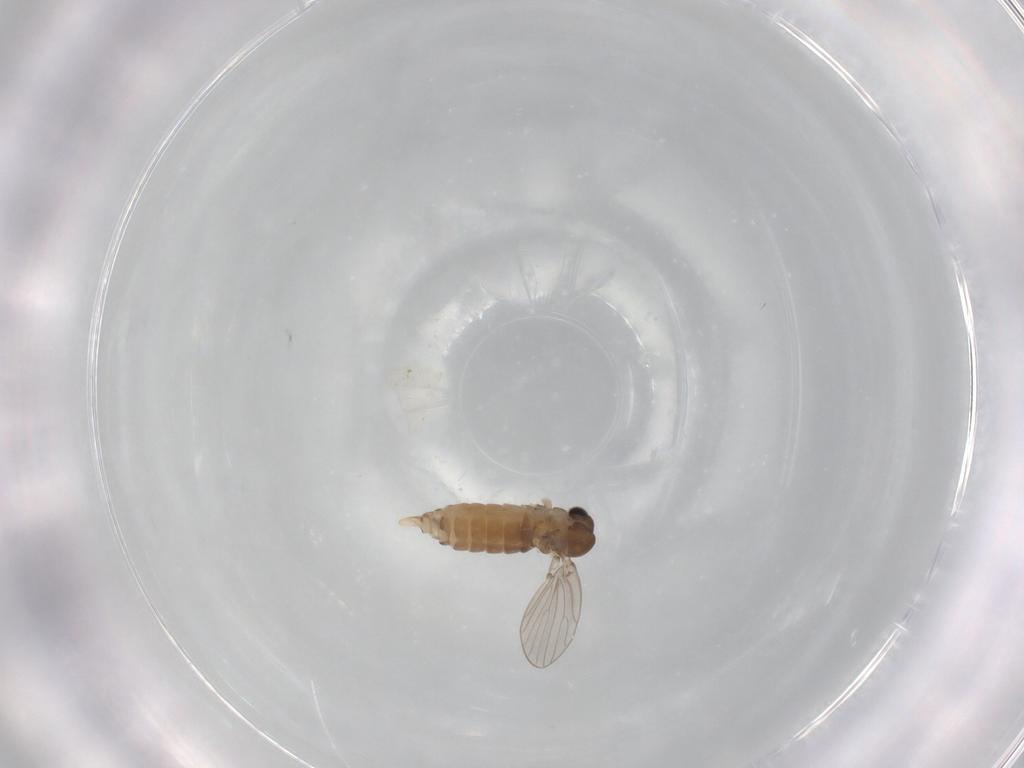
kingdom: Animalia
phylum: Arthropoda
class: Insecta
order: Diptera
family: Psychodidae
